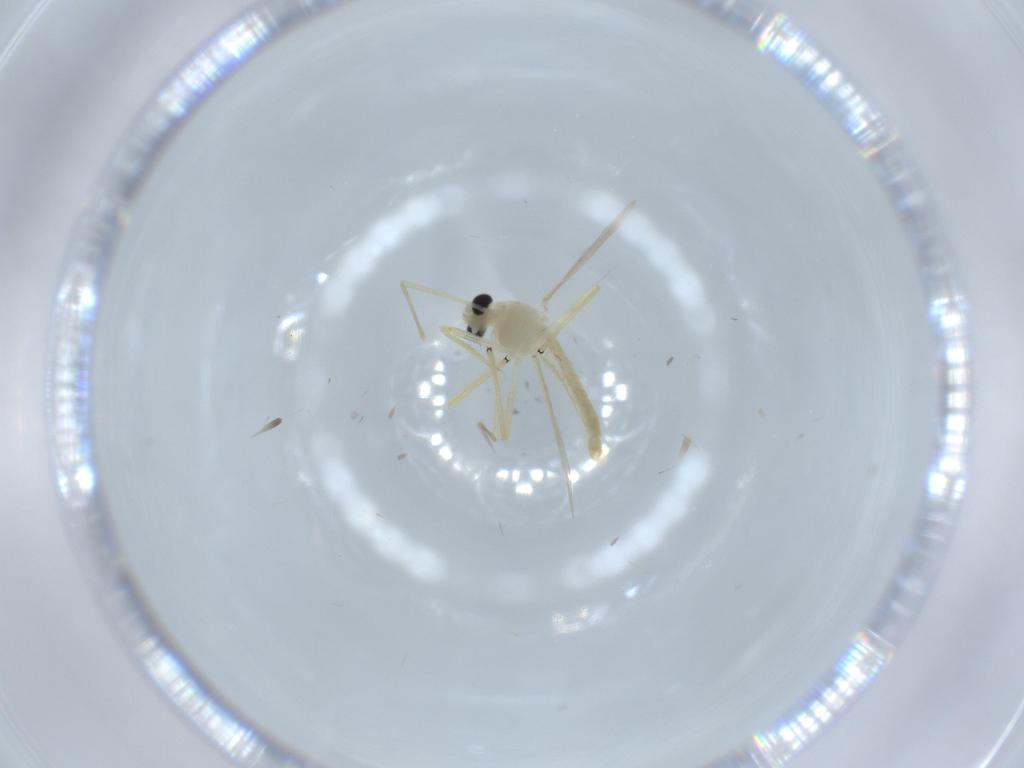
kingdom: Animalia
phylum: Arthropoda
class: Insecta
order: Diptera
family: Chironomidae
